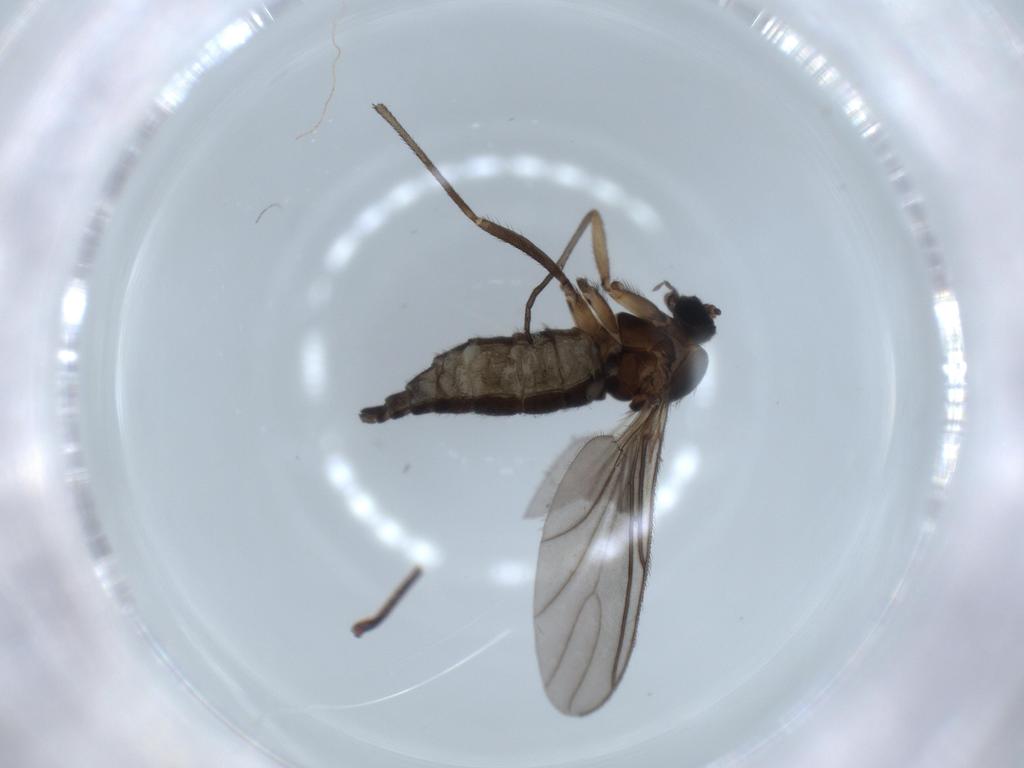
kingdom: Animalia
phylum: Arthropoda
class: Insecta
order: Diptera
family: Sciaridae
